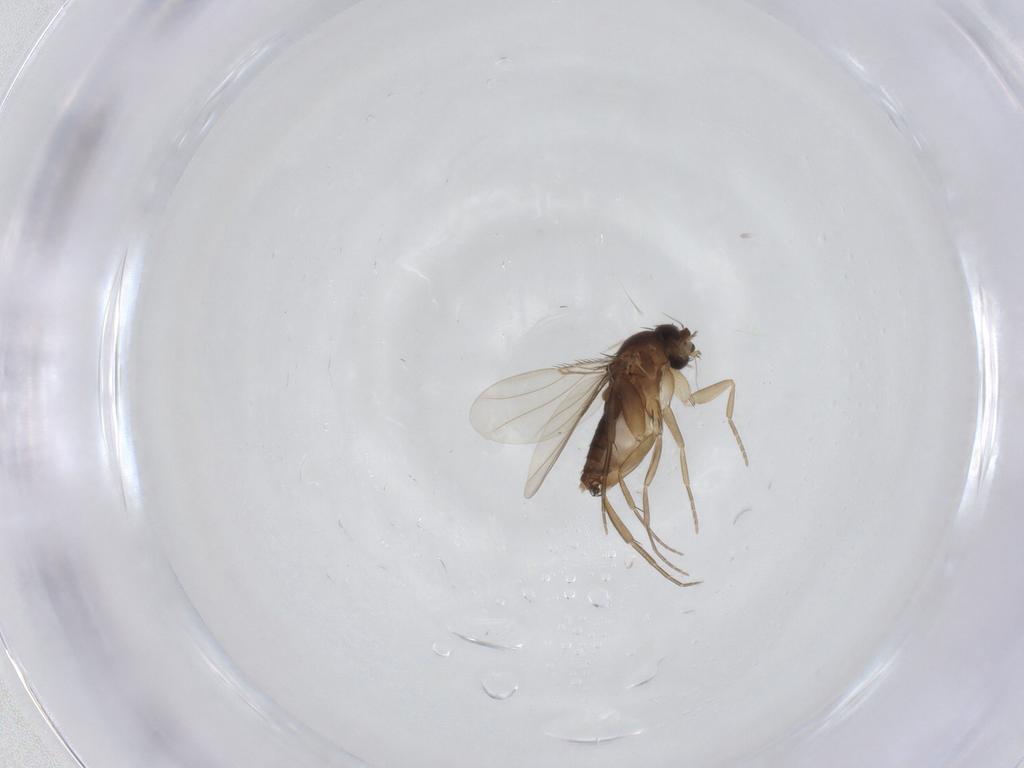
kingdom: Animalia
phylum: Arthropoda
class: Insecta
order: Diptera
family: Phoridae
